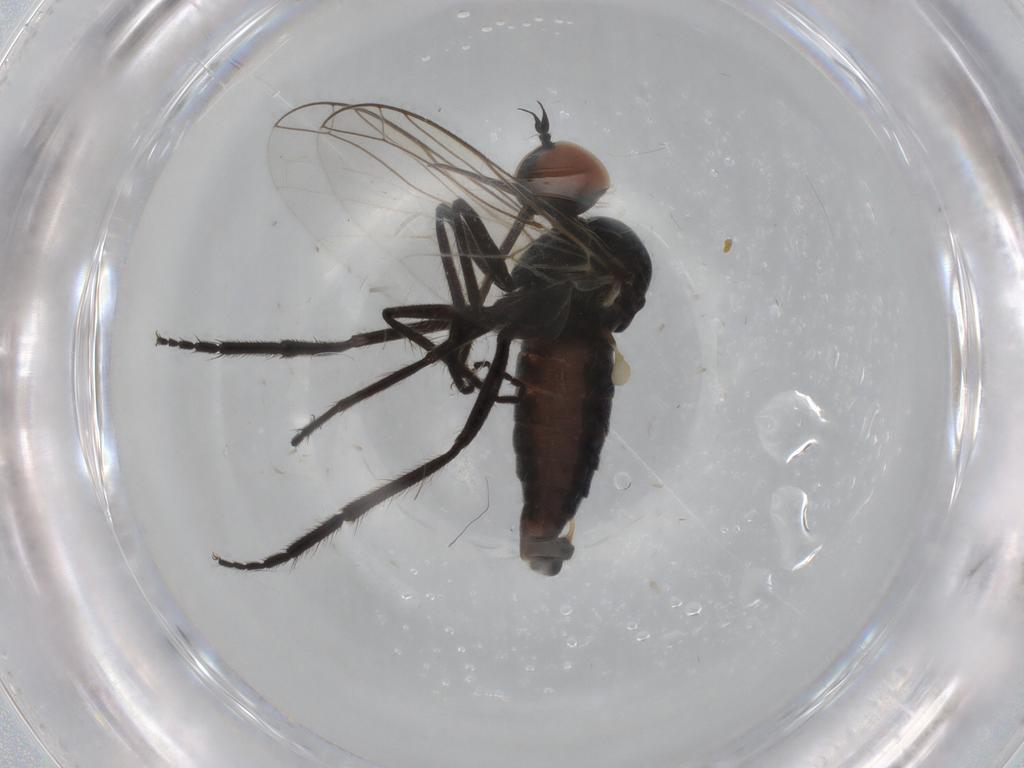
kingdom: Animalia
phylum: Arthropoda
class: Insecta
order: Diptera
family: Empididae
